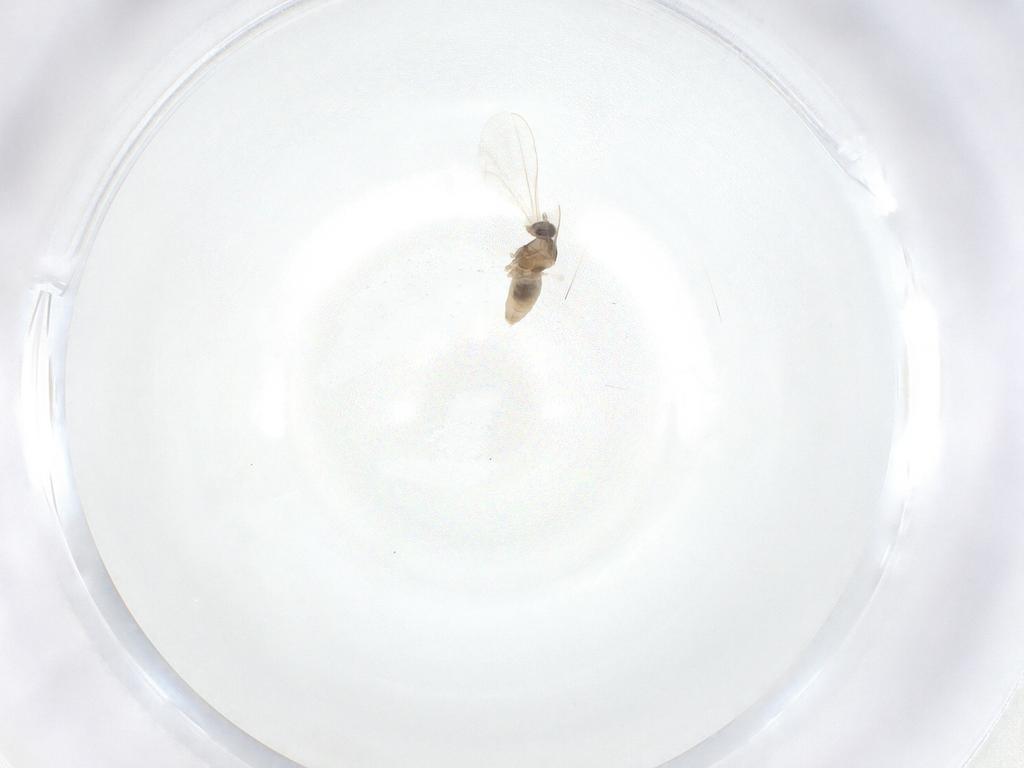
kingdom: Animalia
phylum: Arthropoda
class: Insecta
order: Diptera
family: Cecidomyiidae
